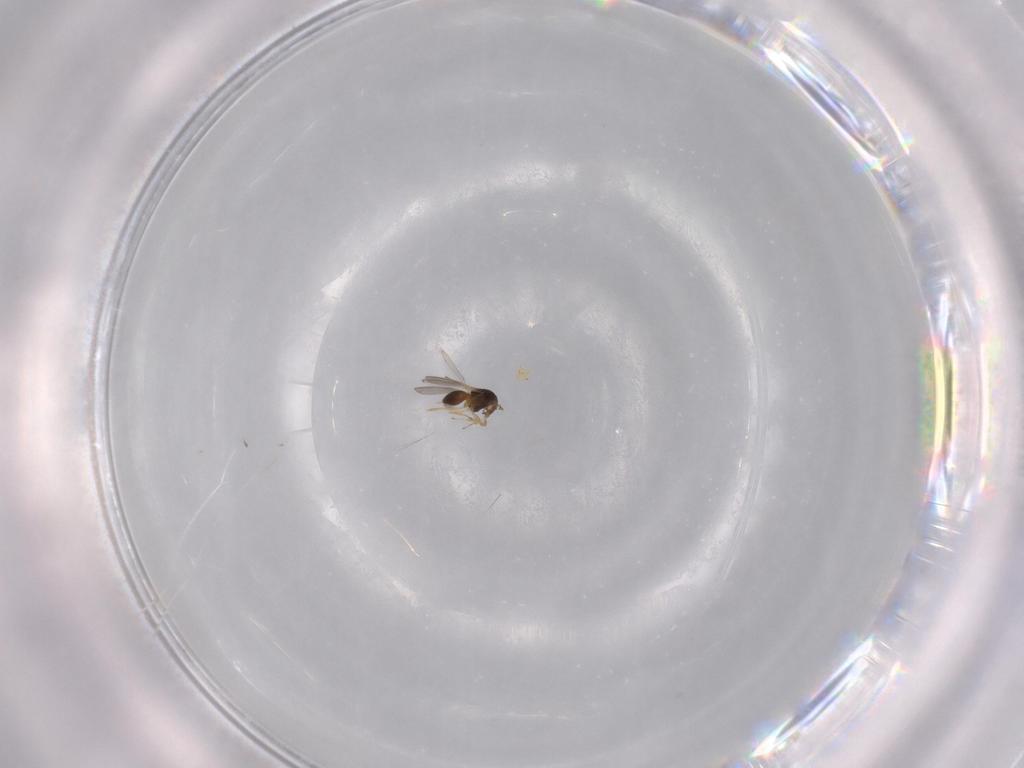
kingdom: Animalia
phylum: Arthropoda
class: Insecta
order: Hymenoptera
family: Scelionidae
